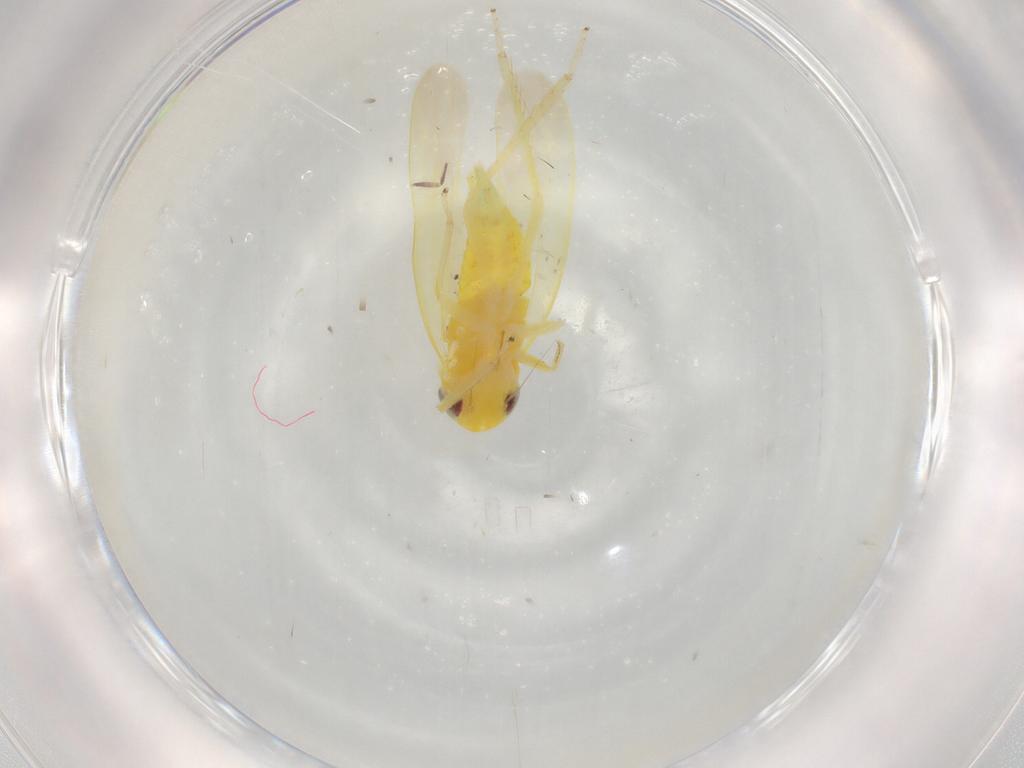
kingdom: Animalia
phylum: Arthropoda
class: Insecta
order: Hemiptera
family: Cicadellidae
